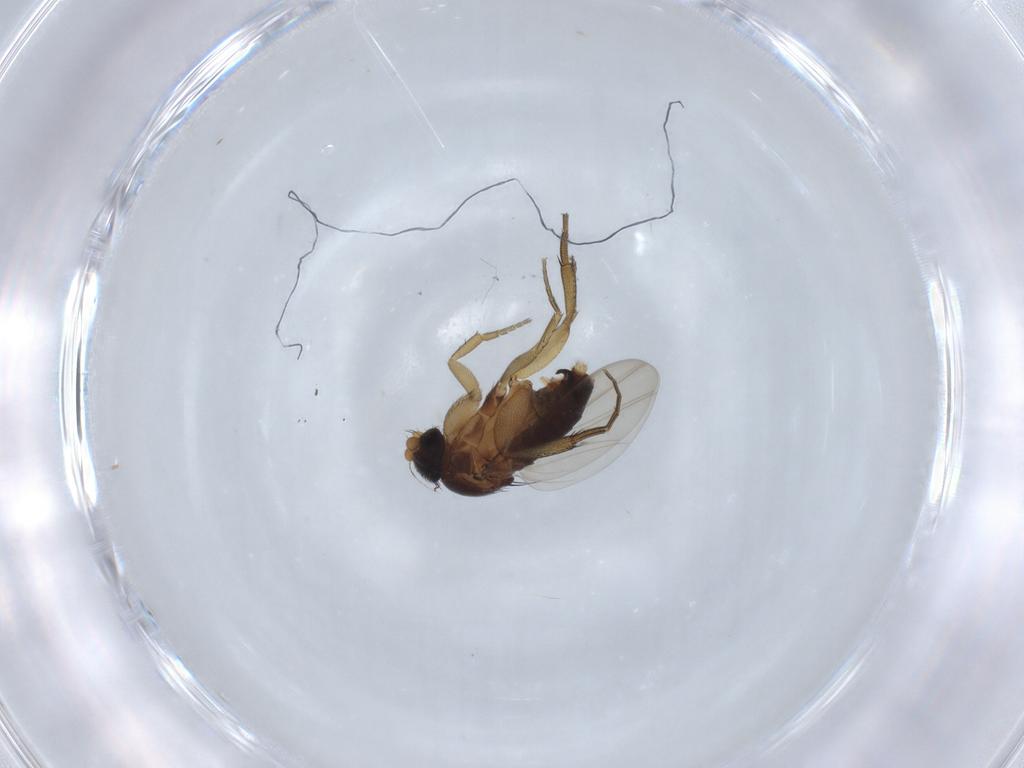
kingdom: Animalia
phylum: Arthropoda
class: Insecta
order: Diptera
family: Phoridae
